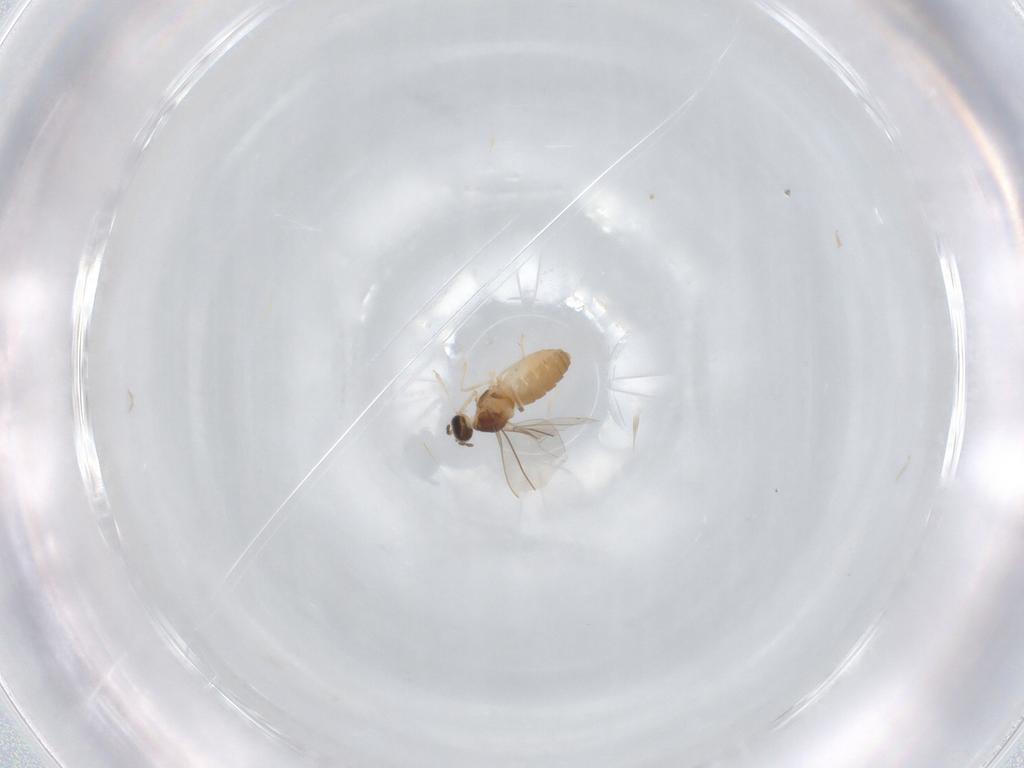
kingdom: Animalia
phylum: Arthropoda
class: Insecta
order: Diptera
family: Cecidomyiidae
